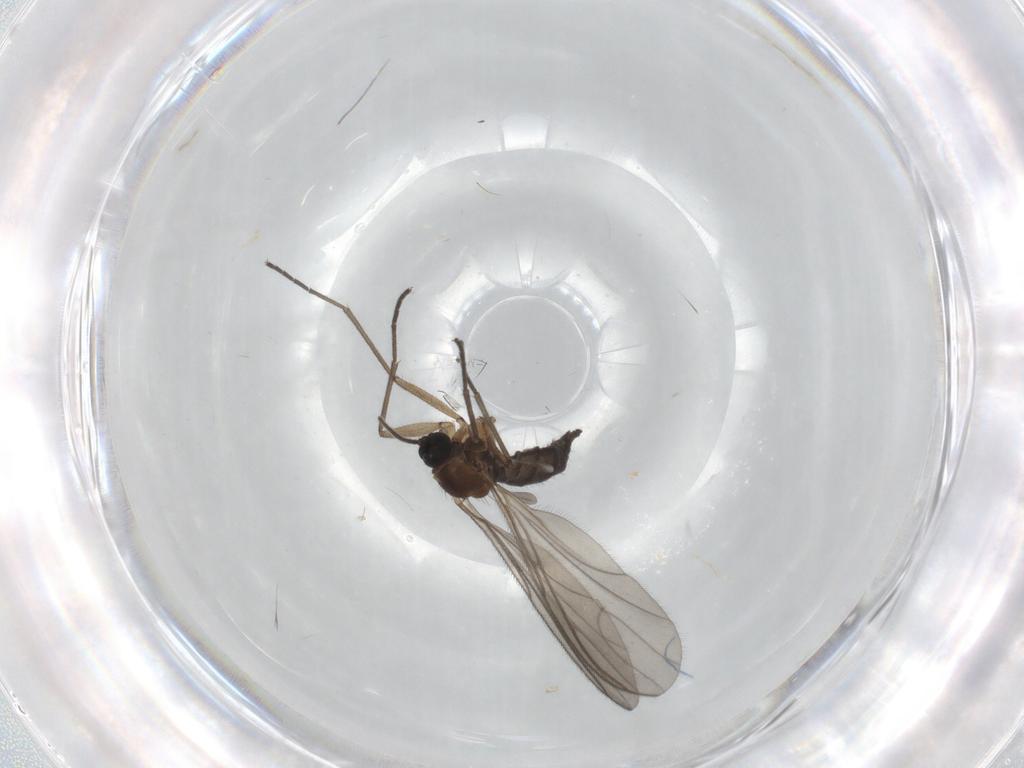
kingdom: Animalia
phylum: Arthropoda
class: Insecta
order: Diptera
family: Sciaridae
